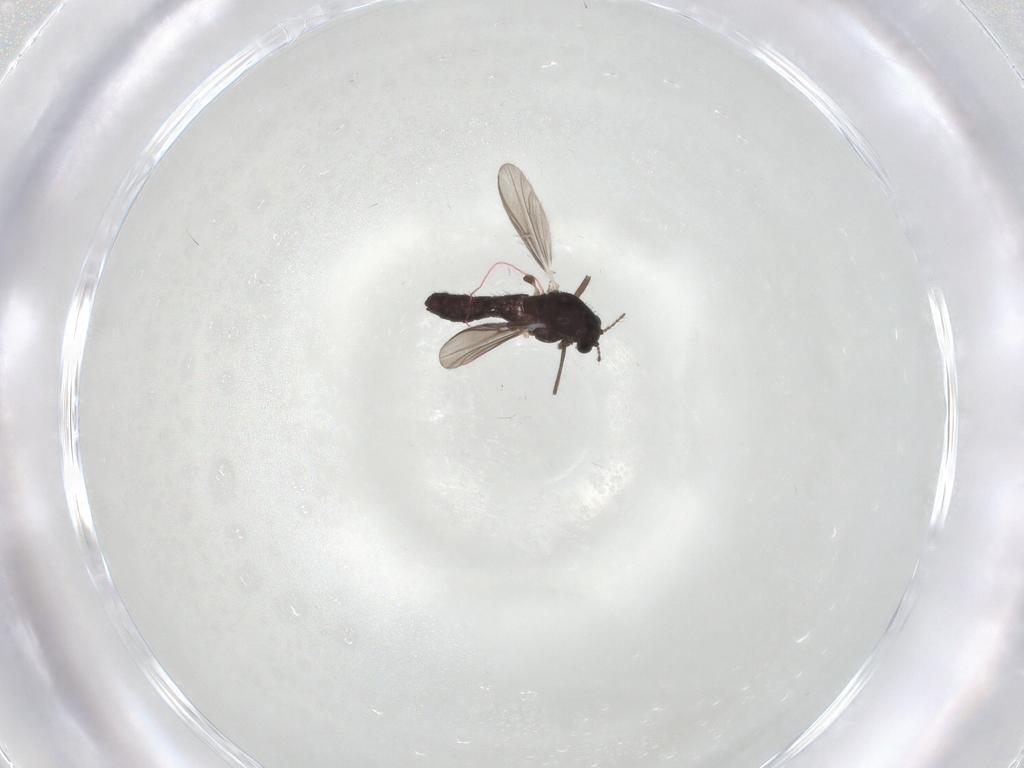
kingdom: Animalia
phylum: Arthropoda
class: Insecta
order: Diptera
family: Chironomidae
